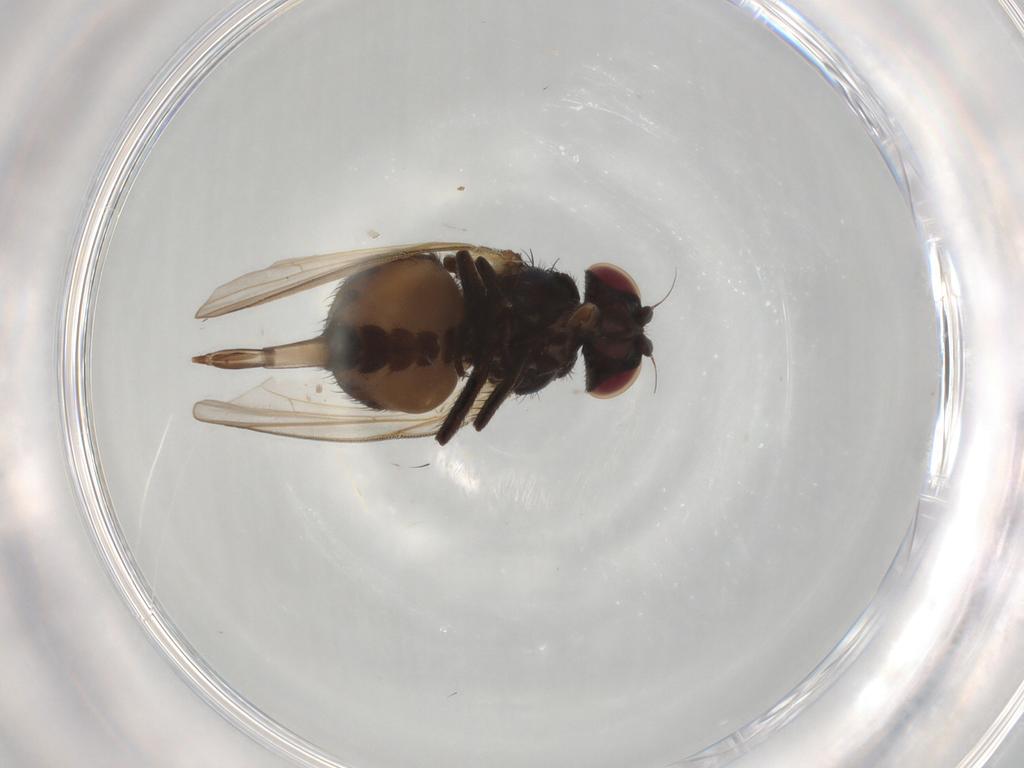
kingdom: Animalia
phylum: Arthropoda
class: Insecta
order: Diptera
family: Lonchaeidae
